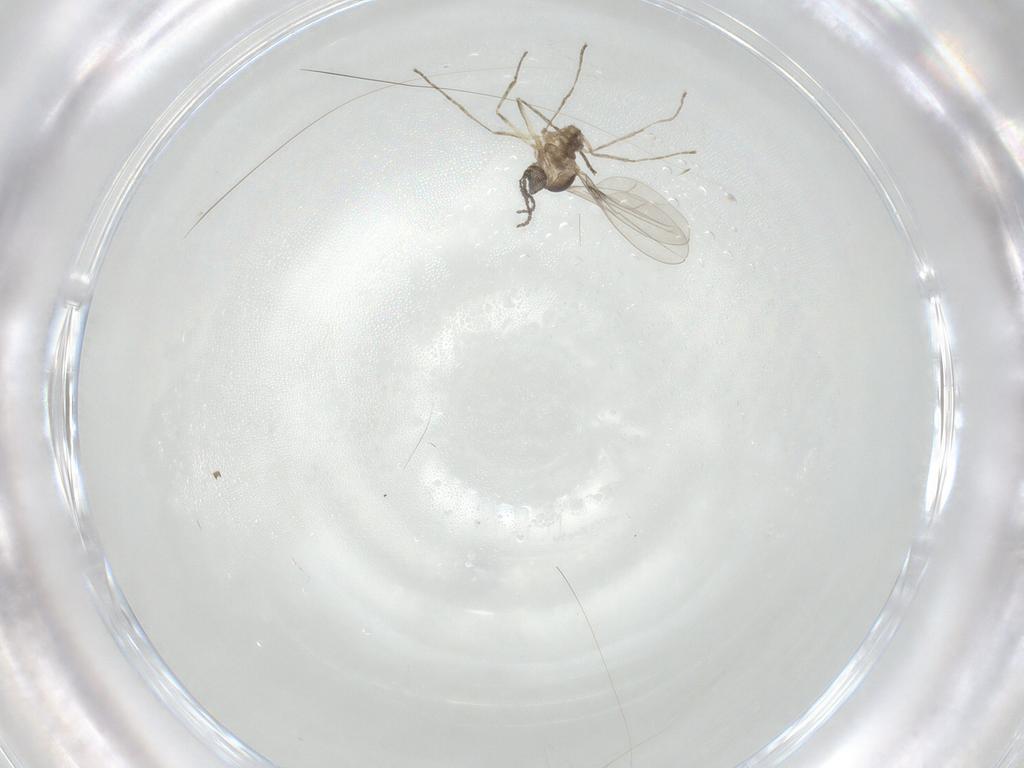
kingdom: Animalia
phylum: Arthropoda
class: Insecta
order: Diptera
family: Cecidomyiidae
